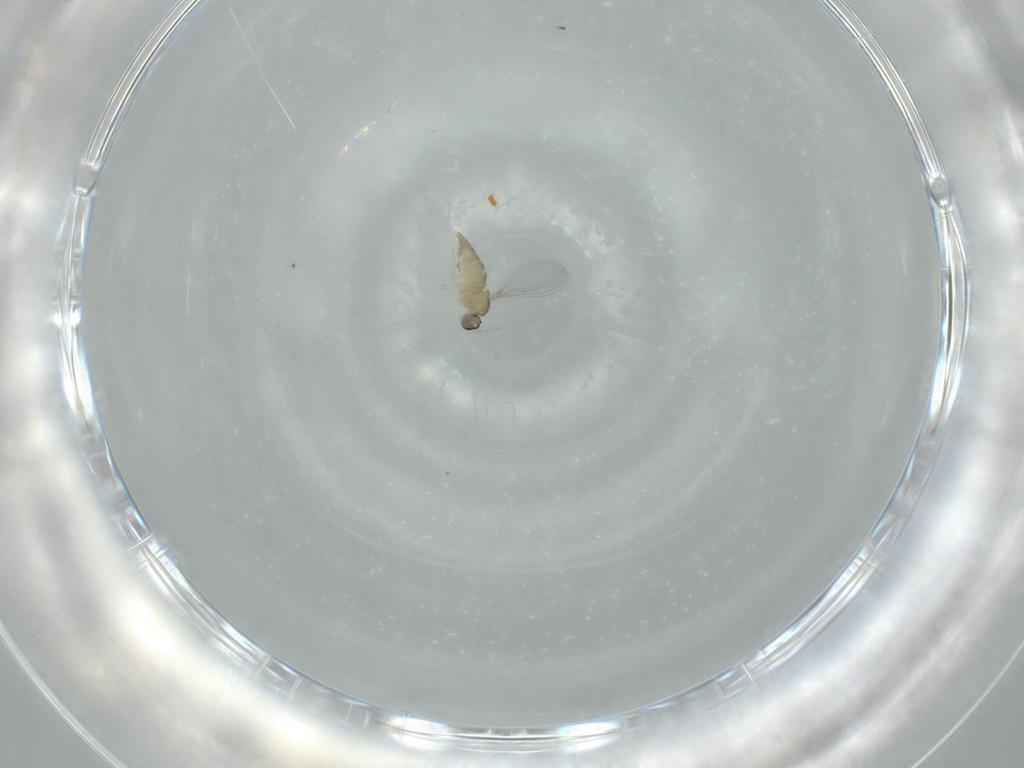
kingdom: Animalia
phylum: Arthropoda
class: Insecta
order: Diptera
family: Cecidomyiidae
